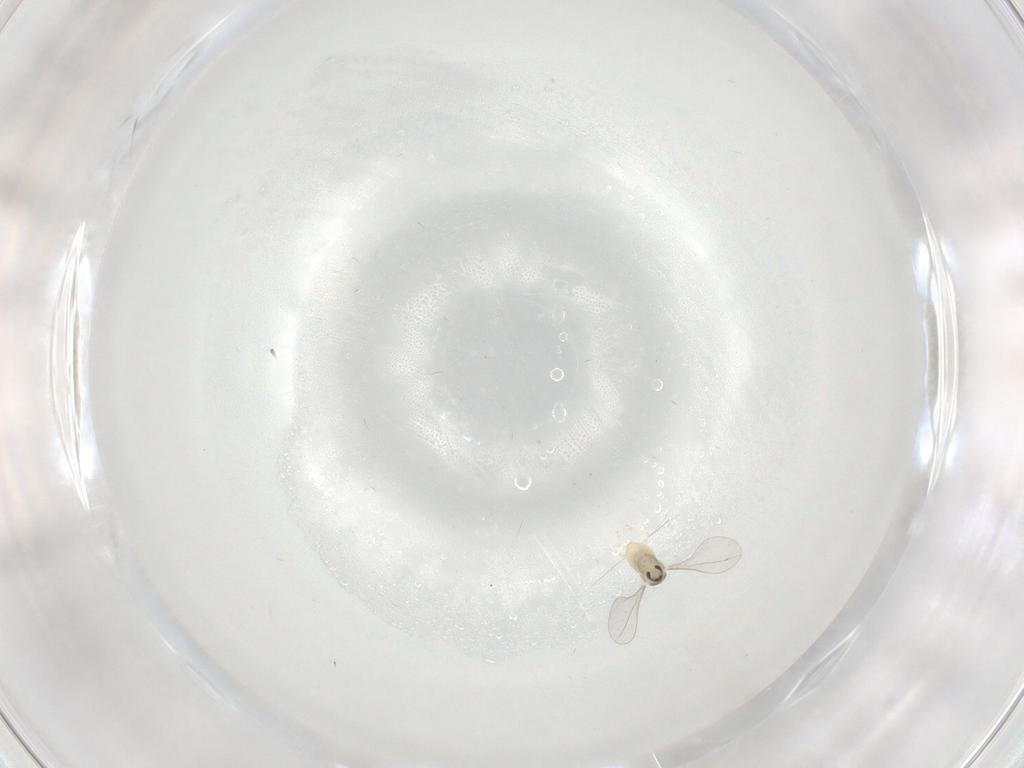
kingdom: Animalia
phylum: Arthropoda
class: Insecta
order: Diptera
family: Cecidomyiidae
